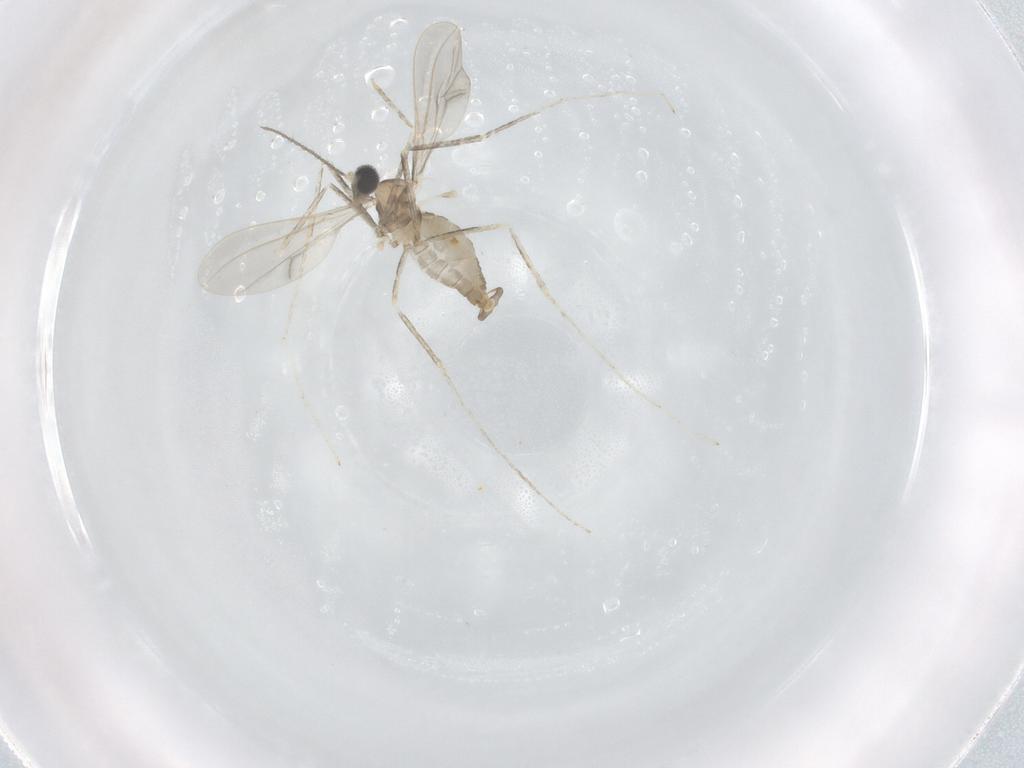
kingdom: Animalia
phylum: Arthropoda
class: Insecta
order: Diptera
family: Cecidomyiidae
